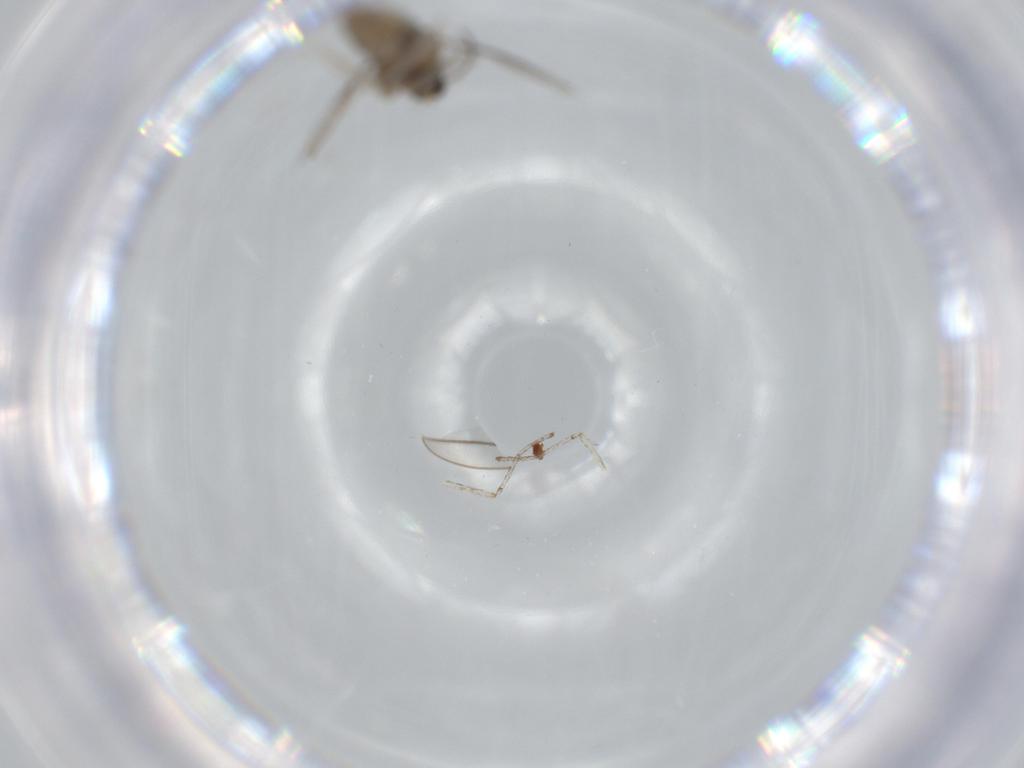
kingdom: Animalia
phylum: Arthropoda
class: Insecta
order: Diptera
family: Cecidomyiidae
